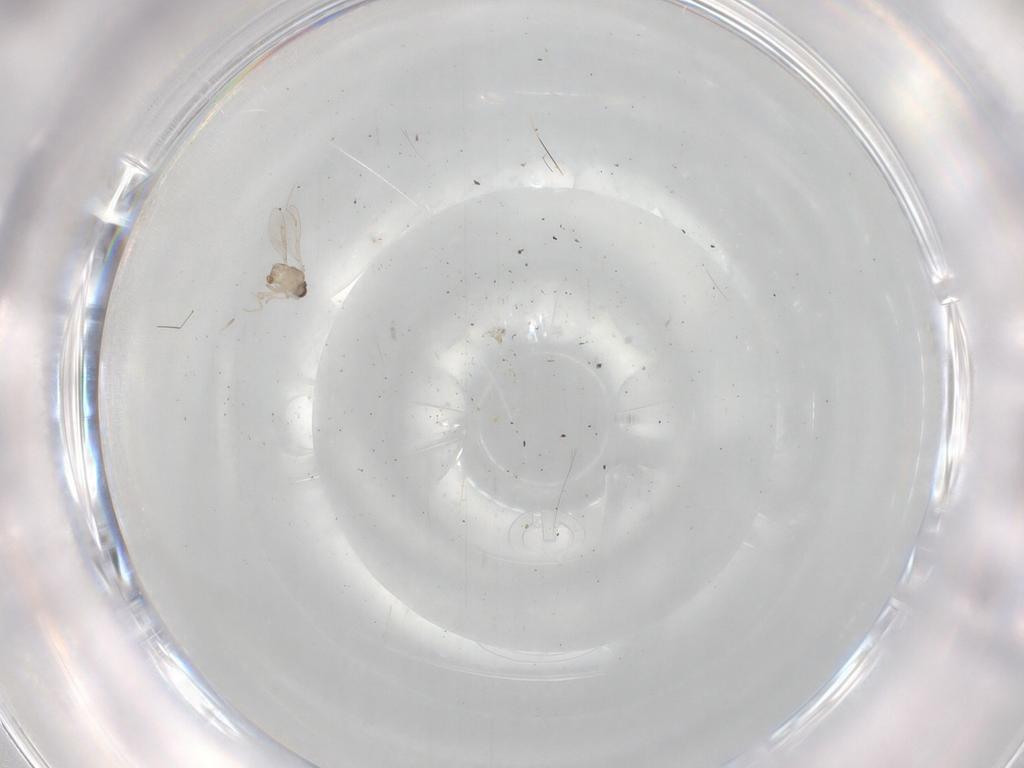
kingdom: Animalia
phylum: Arthropoda
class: Insecta
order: Diptera
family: Cecidomyiidae
